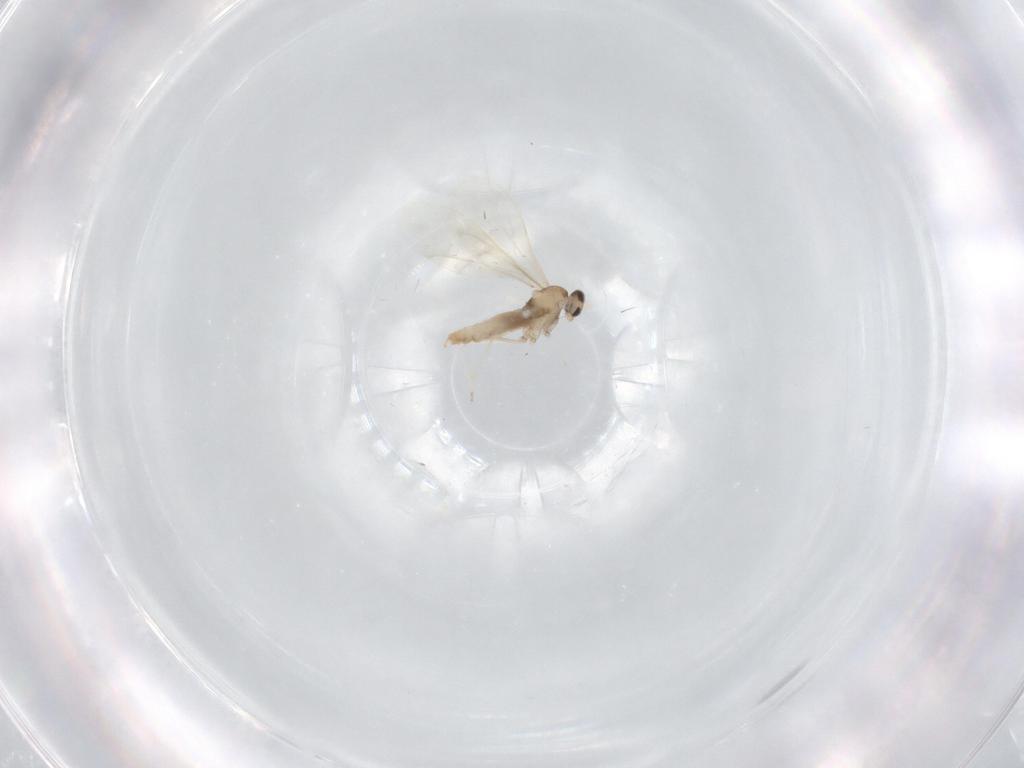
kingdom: Animalia
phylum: Arthropoda
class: Insecta
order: Diptera
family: Cecidomyiidae
